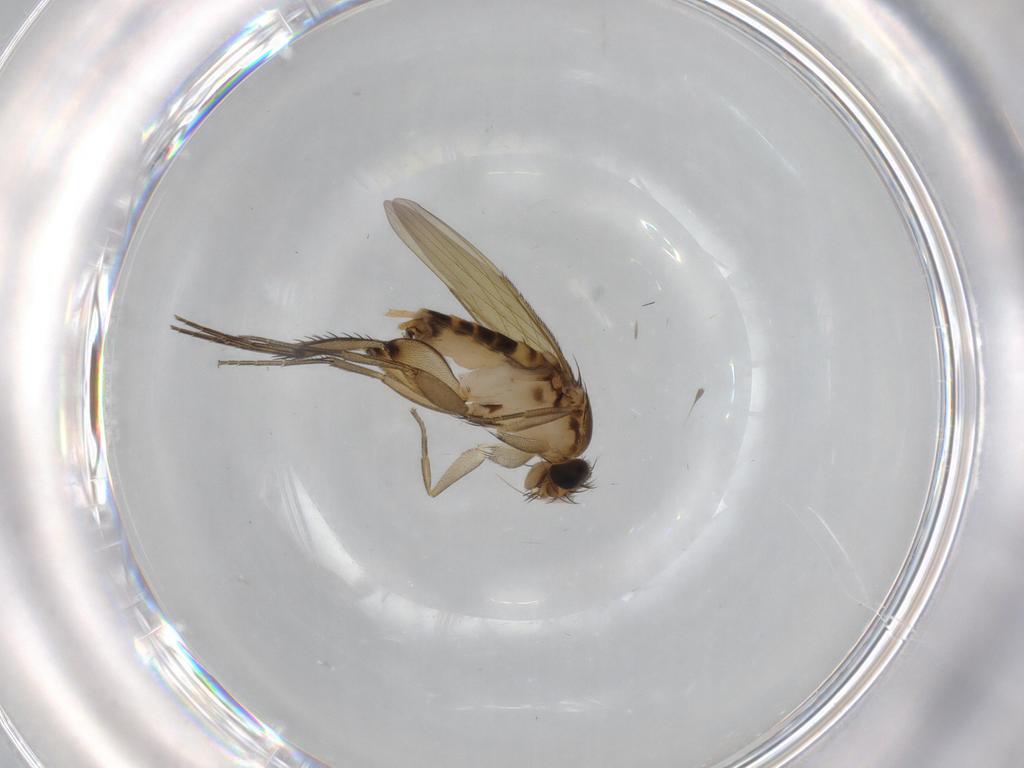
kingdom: Animalia
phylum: Arthropoda
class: Insecta
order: Diptera
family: Phoridae
